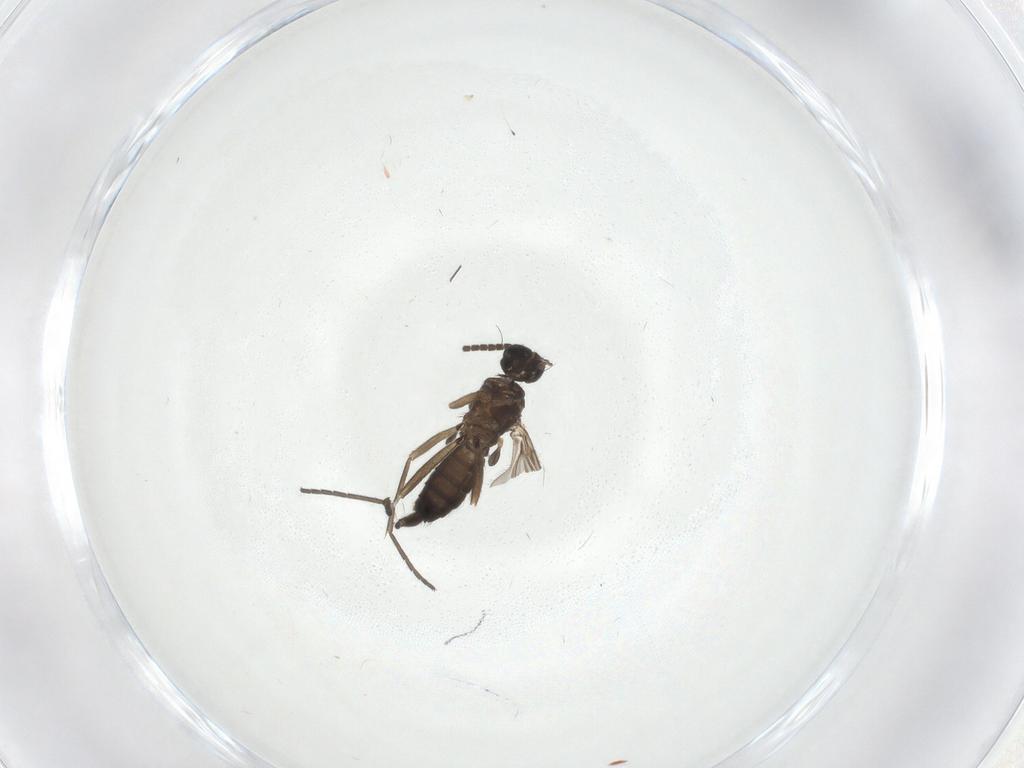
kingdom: Animalia
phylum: Arthropoda
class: Insecta
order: Diptera
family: Sciaridae
